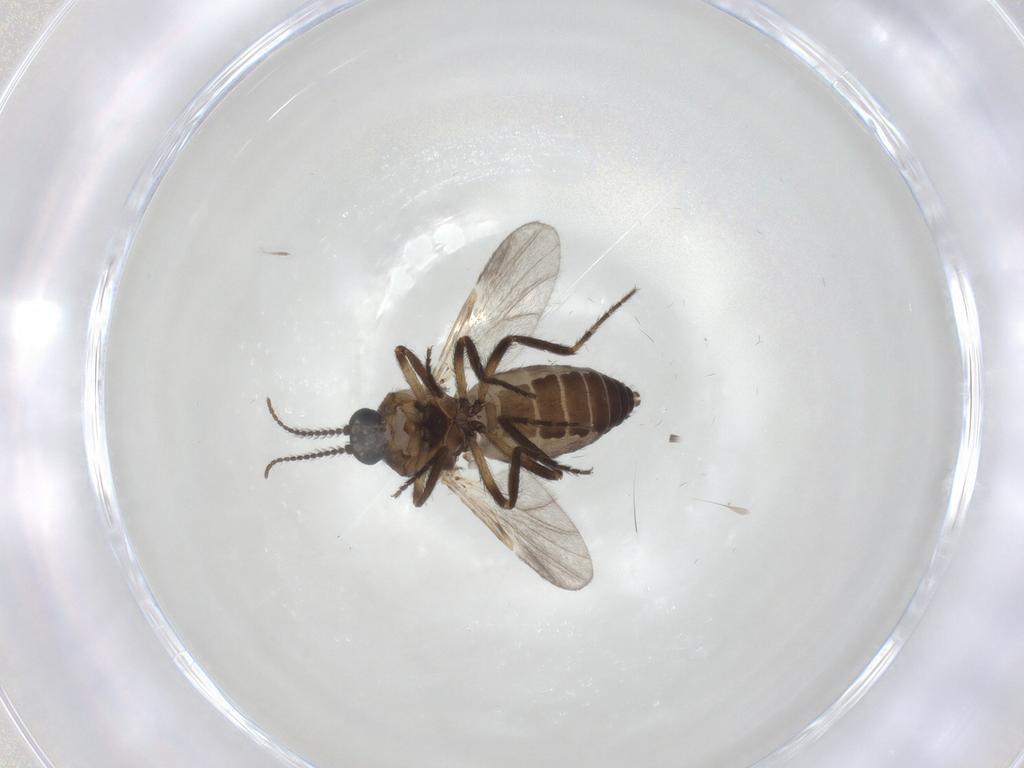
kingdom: Animalia
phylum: Arthropoda
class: Insecta
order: Diptera
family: Ceratopogonidae
